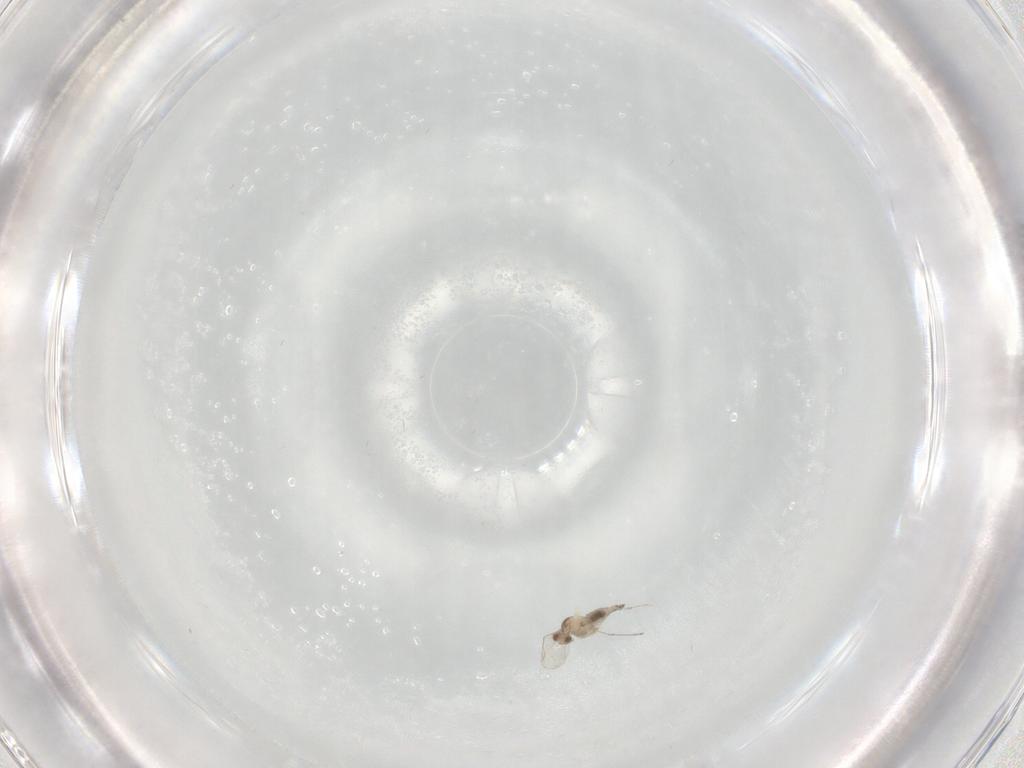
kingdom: Animalia
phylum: Arthropoda
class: Insecta
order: Diptera
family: Cecidomyiidae
